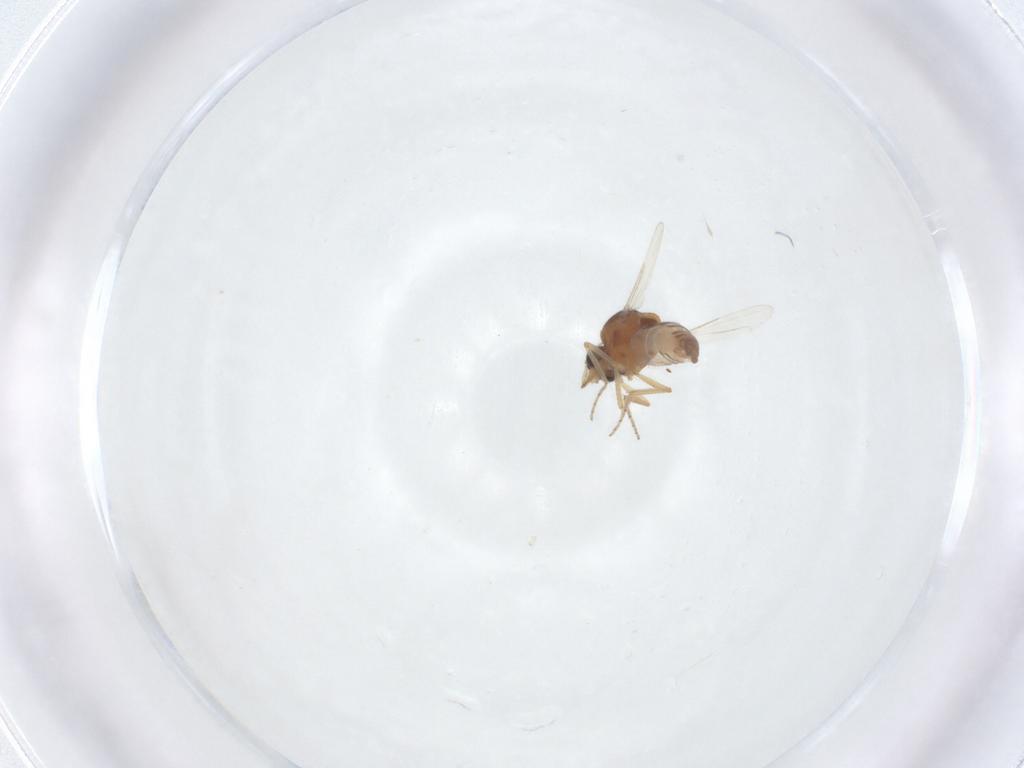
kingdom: Animalia
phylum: Arthropoda
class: Insecta
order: Diptera
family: Ceratopogonidae
